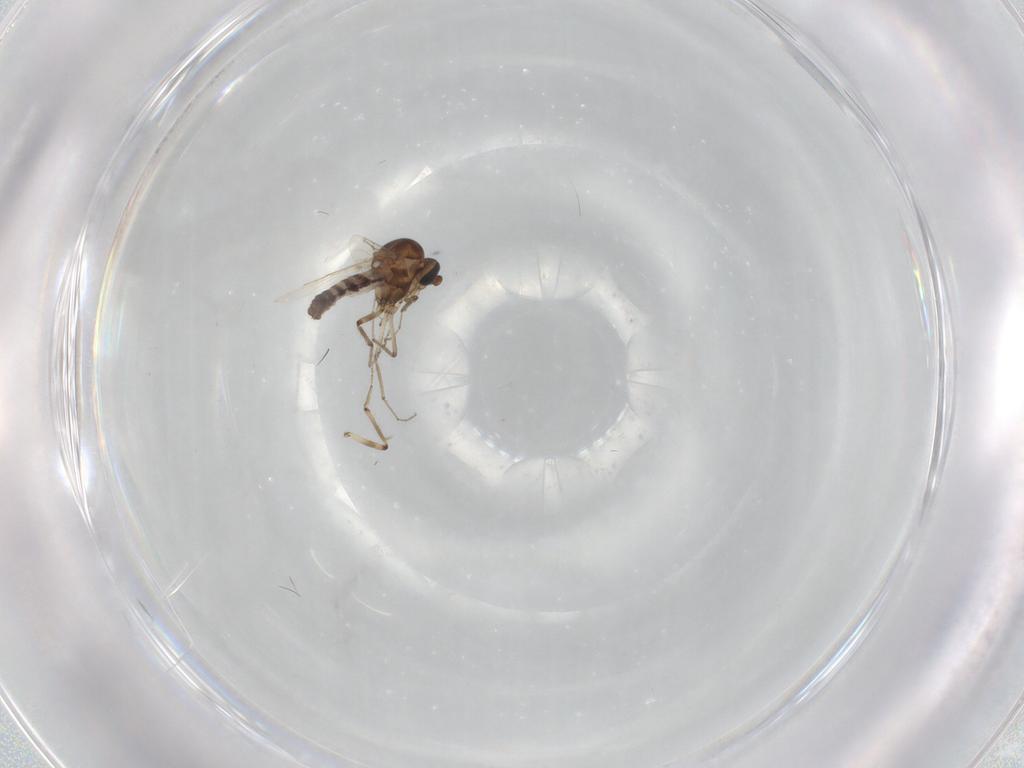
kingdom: Animalia
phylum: Arthropoda
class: Insecta
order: Diptera
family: Ceratopogonidae
